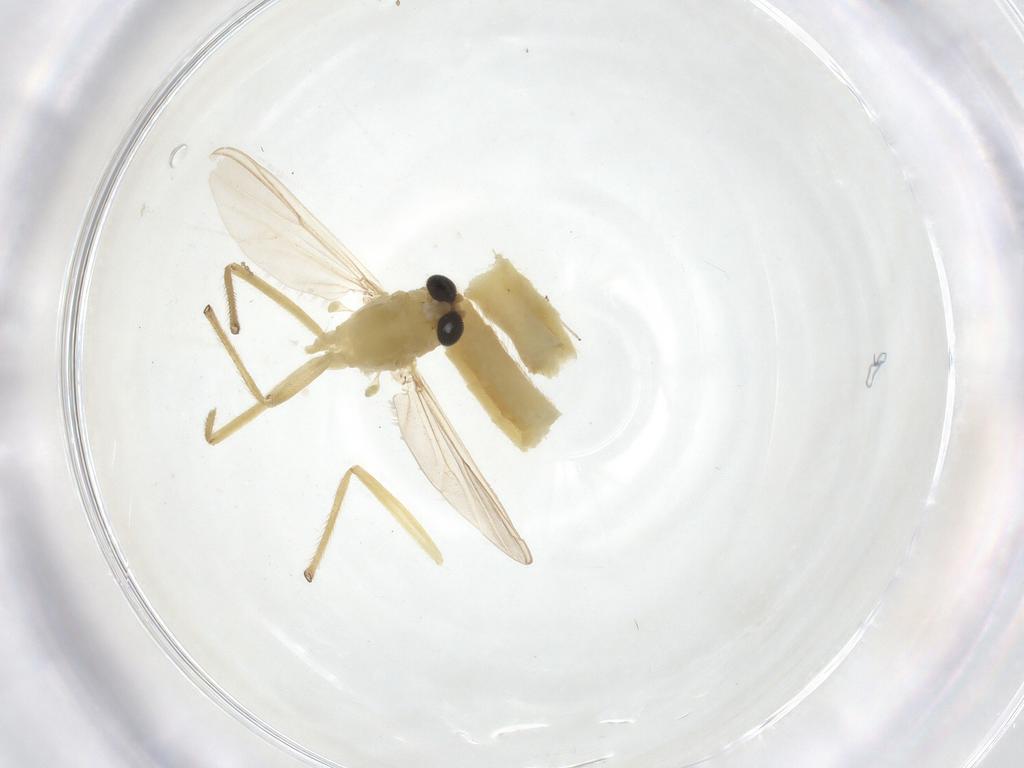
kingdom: Animalia
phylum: Arthropoda
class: Insecta
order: Diptera
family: Chironomidae
